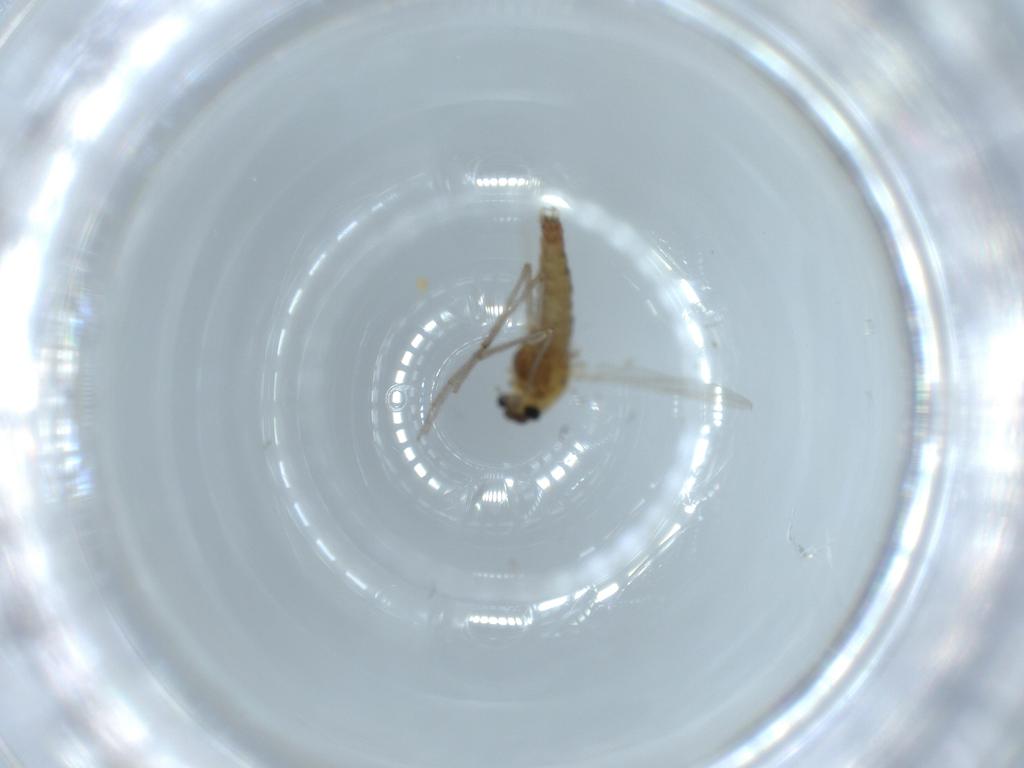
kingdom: Animalia
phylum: Arthropoda
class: Insecta
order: Diptera
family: Chironomidae
